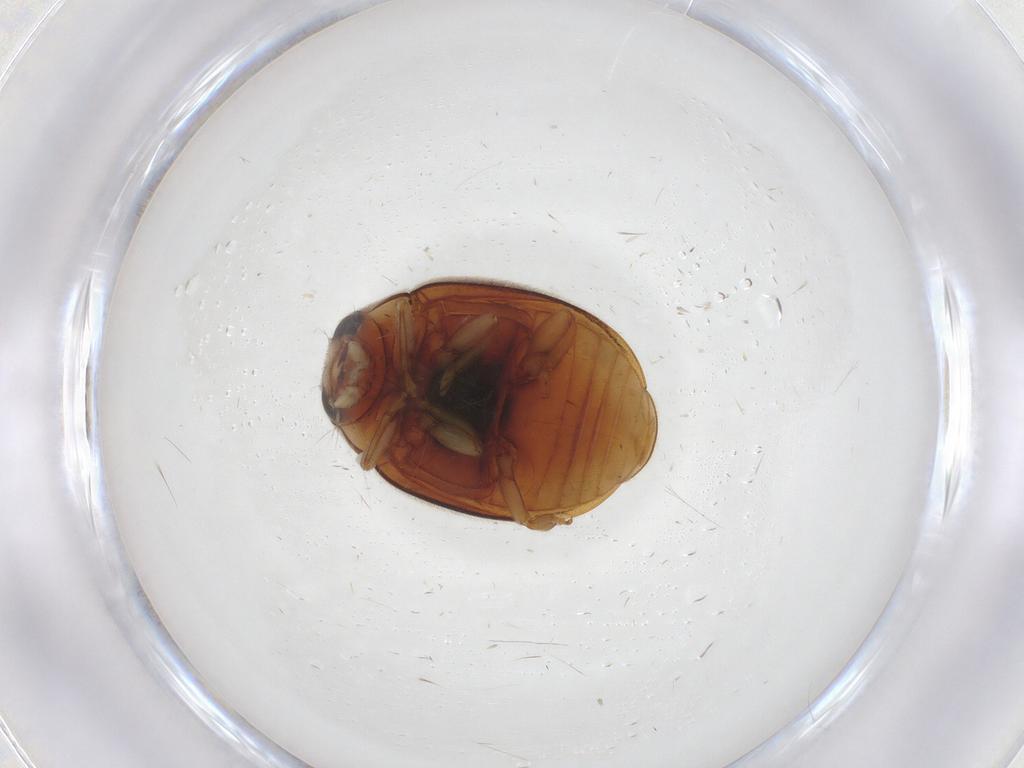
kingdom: Animalia
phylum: Arthropoda
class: Insecta
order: Coleoptera
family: Coccinellidae
